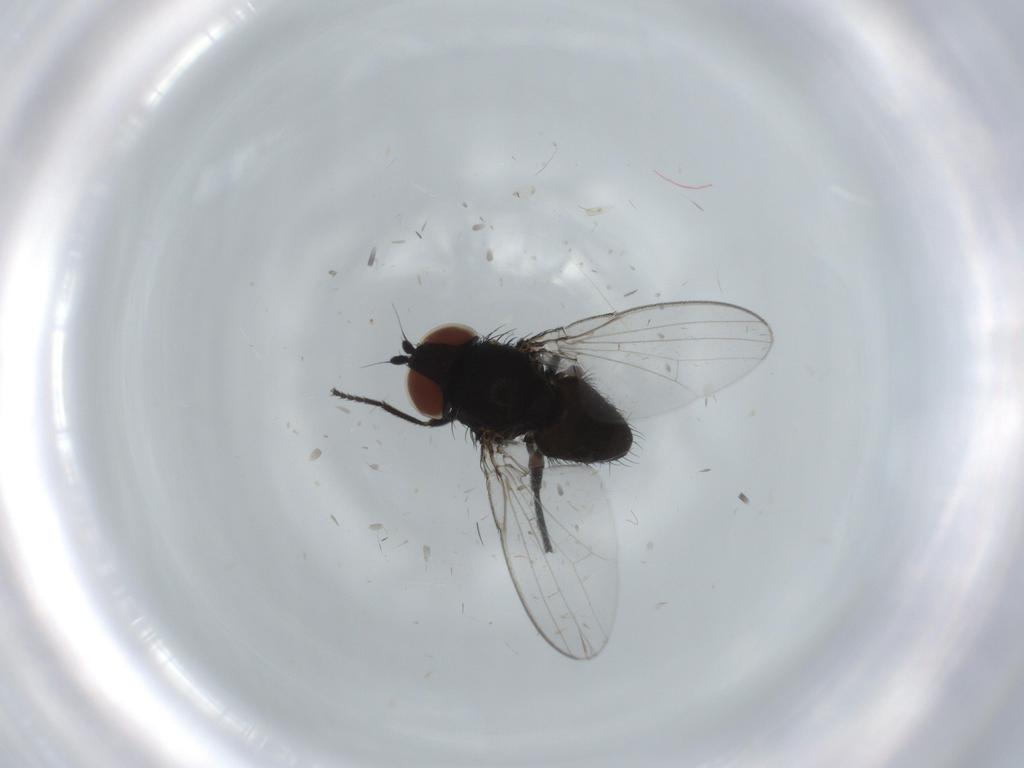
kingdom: Animalia
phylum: Arthropoda
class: Insecta
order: Diptera
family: Milichiidae
